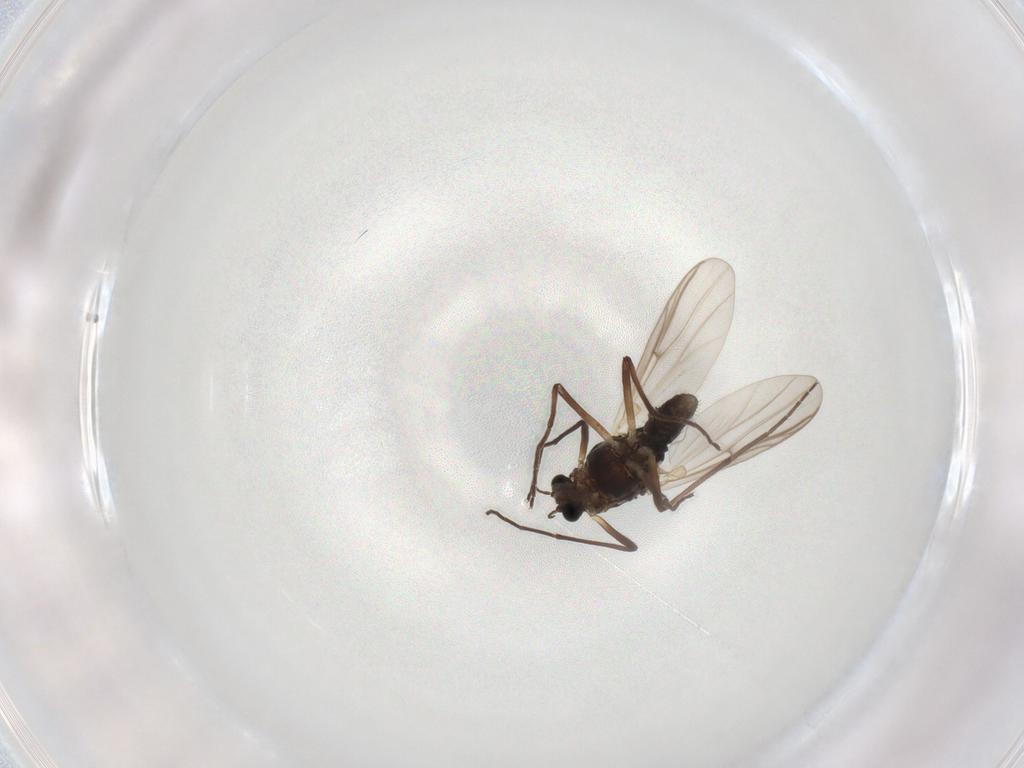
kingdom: Animalia
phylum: Arthropoda
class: Insecta
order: Diptera
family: Chironomidae
